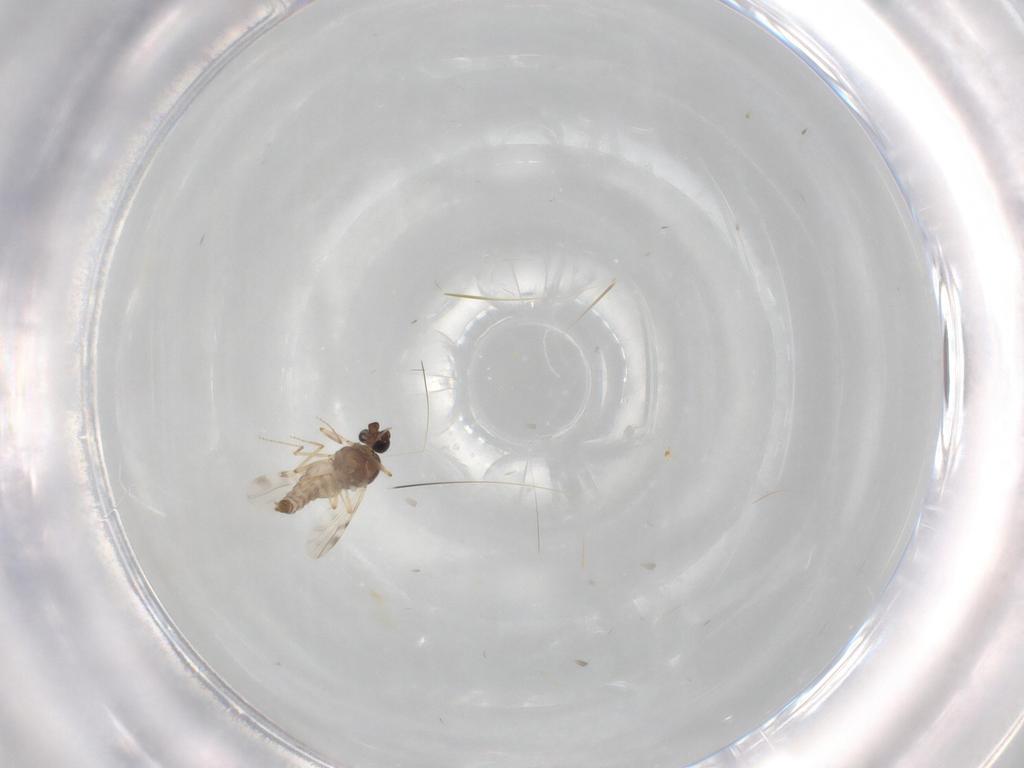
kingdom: Animalia
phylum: Arthropoda
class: Insecta
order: Diptera
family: Ceratopogonidae
